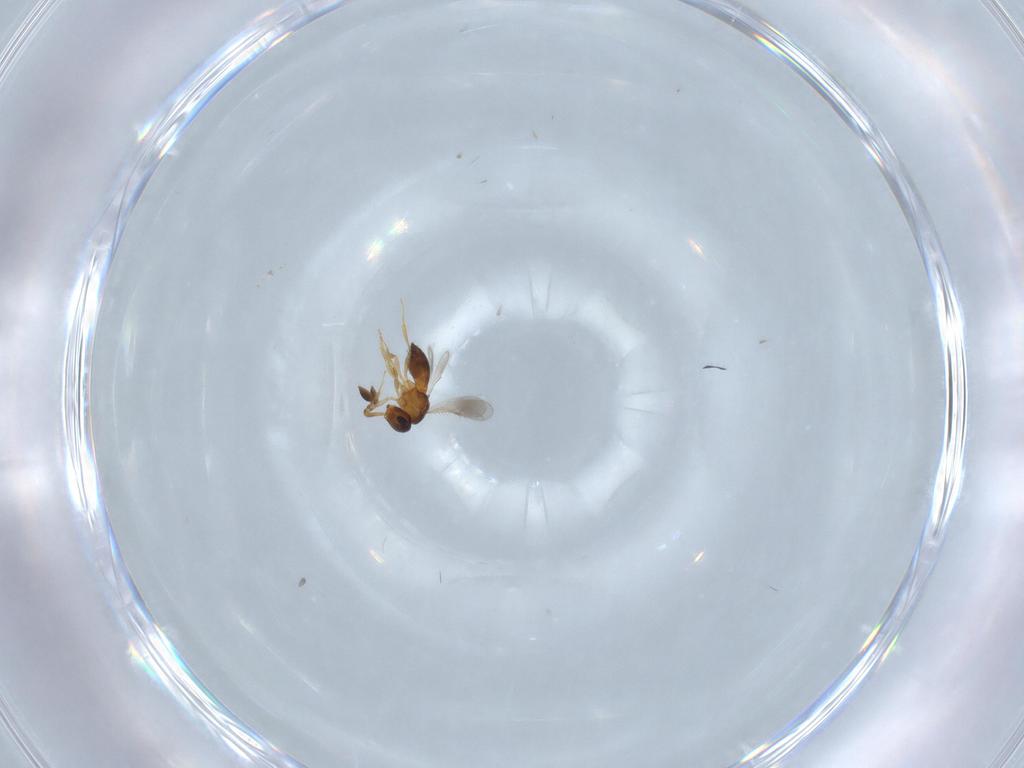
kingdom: Animalia
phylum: Arthropoda
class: Insecta
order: Hymenoptera
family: Scelionidae
